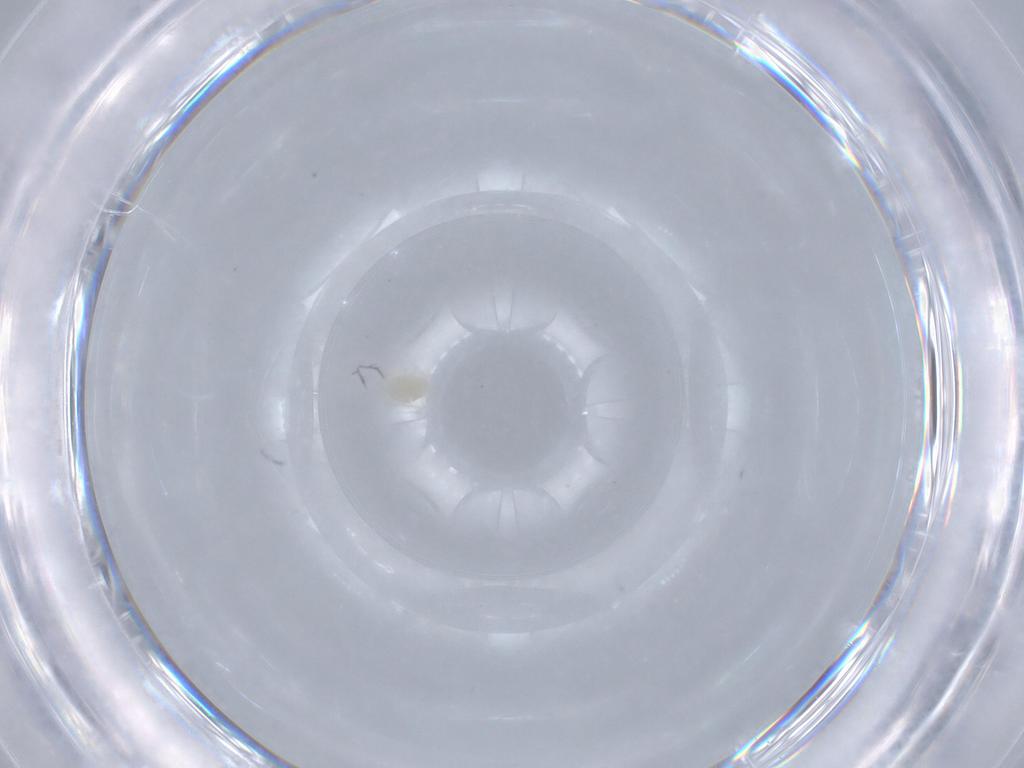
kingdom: Animalia
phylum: Arthropoda
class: Arachnida
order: Trombidiformes
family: Eupodidae
